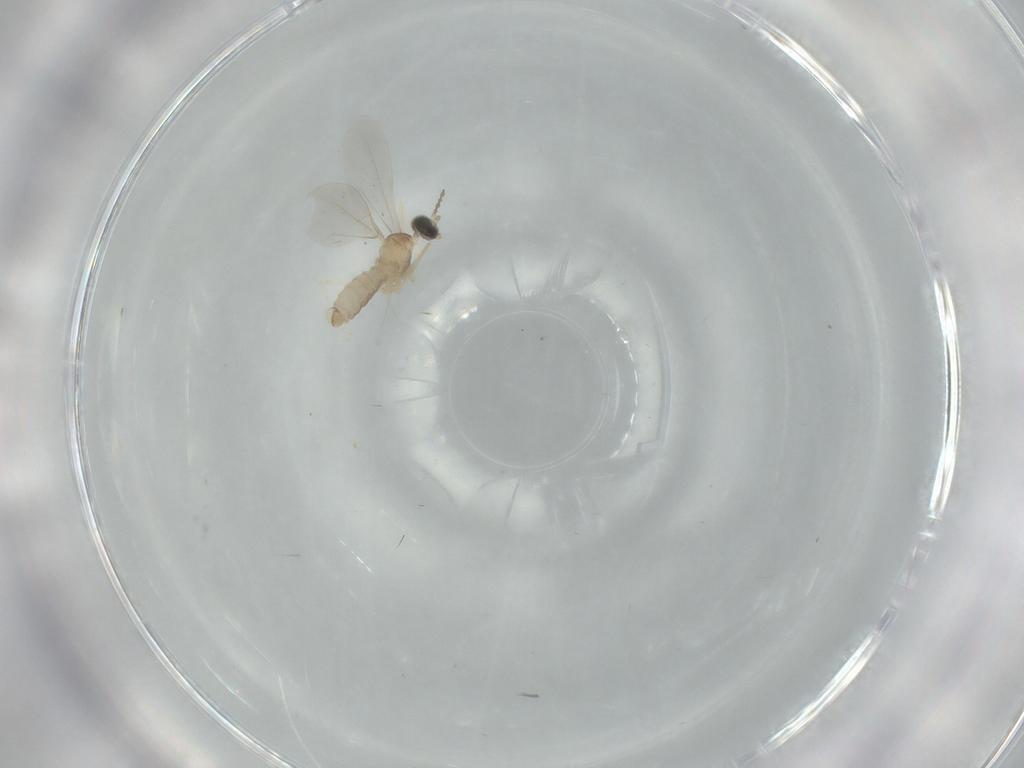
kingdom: Animalia
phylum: Arthropoda
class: Insecta
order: Diptera
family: Cecidomyiidae
